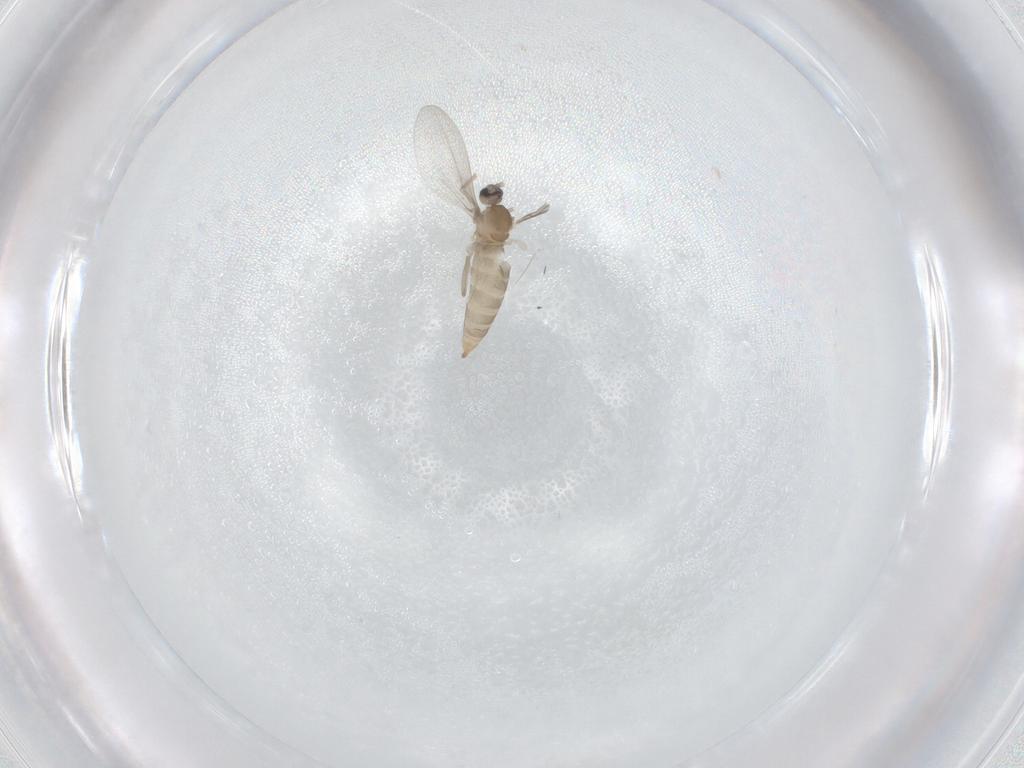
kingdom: Animalia
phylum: Arthropoda
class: Insecta
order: Diptera
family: Cecidomyiidae
